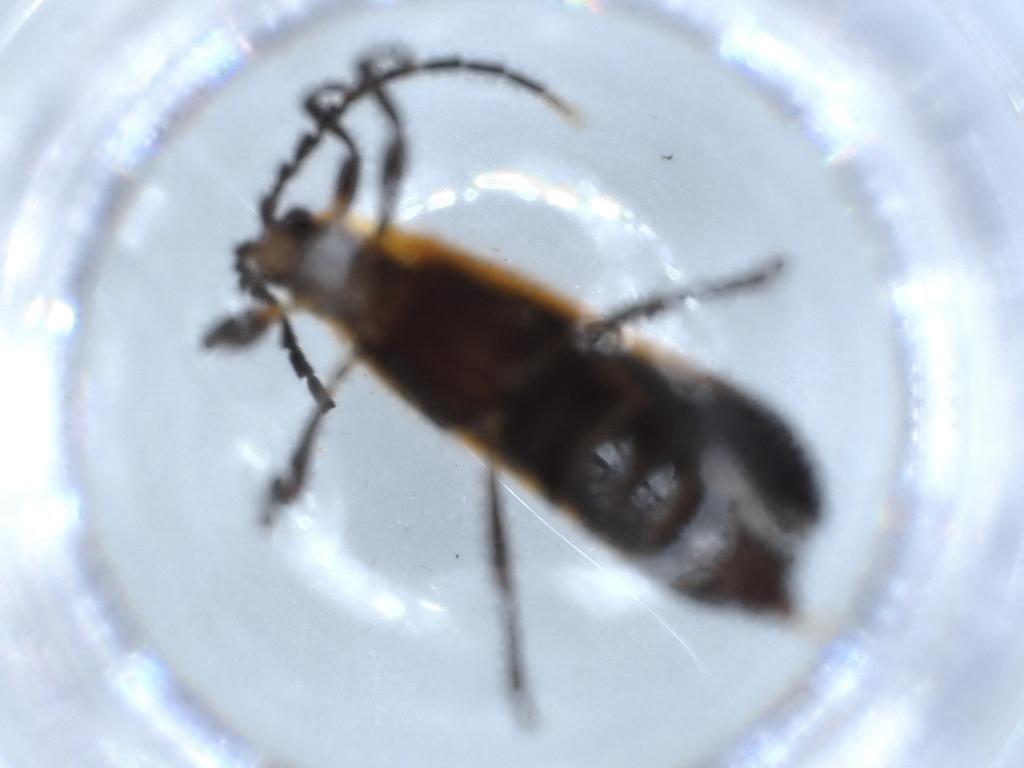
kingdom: Animalia
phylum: Arthropoda
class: Insecta
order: Coleoptera
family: Lycidae
